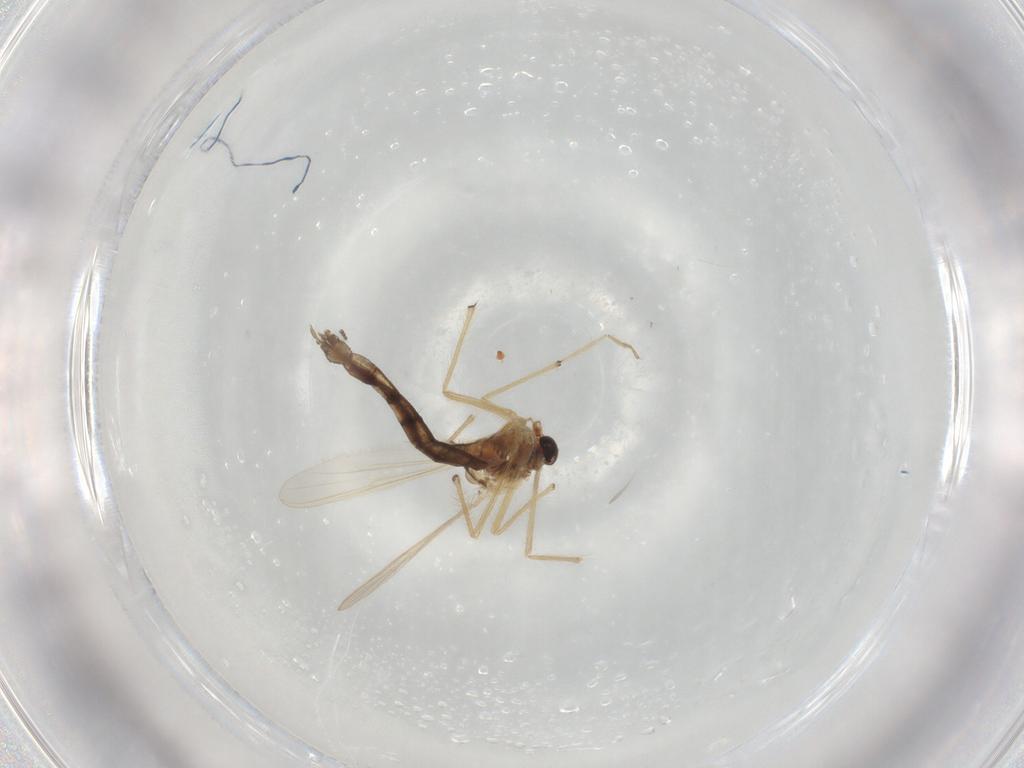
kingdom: Animalia
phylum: Arthropoda
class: Insecta
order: Diptera
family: Chironomidae
